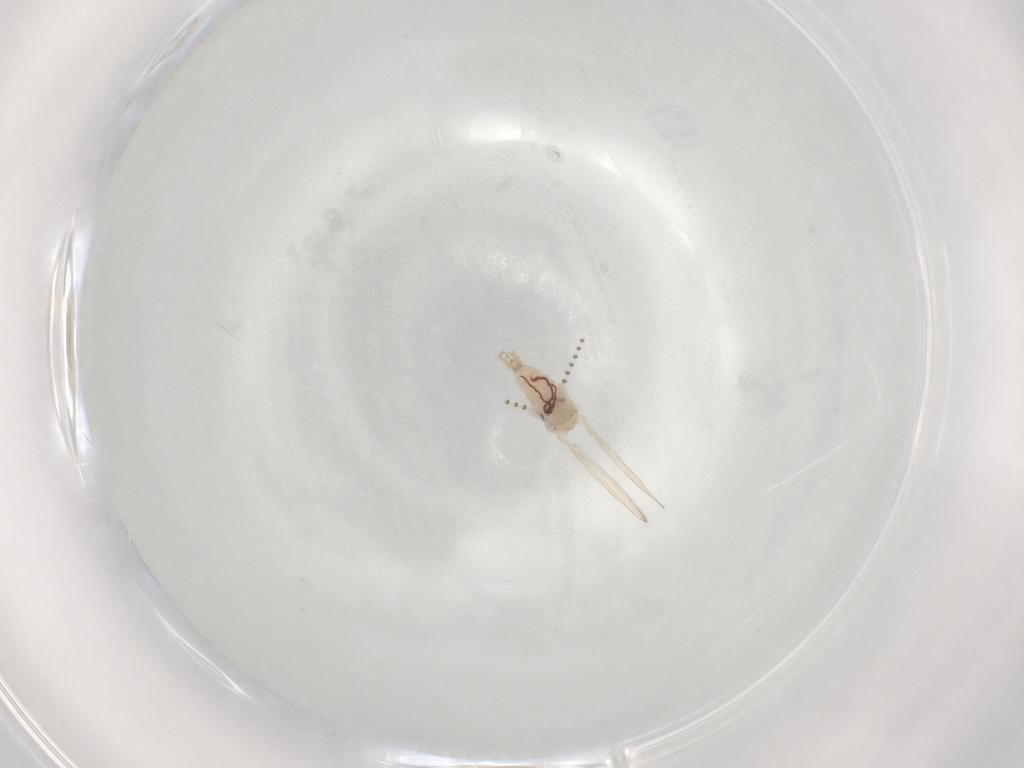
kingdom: Animalia
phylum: Arthropoda
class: Insecta
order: Diptera
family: Psychodidae
